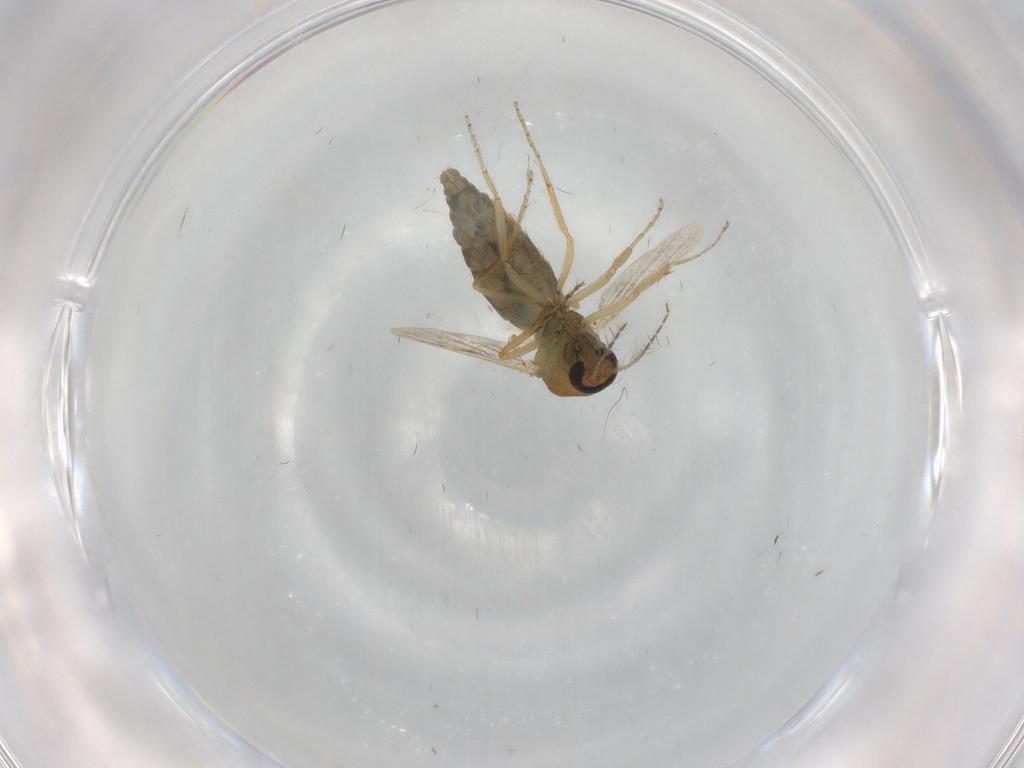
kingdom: Animalia
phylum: Arthropoda
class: Insecta
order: Diptera
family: Ceratopogonidae
